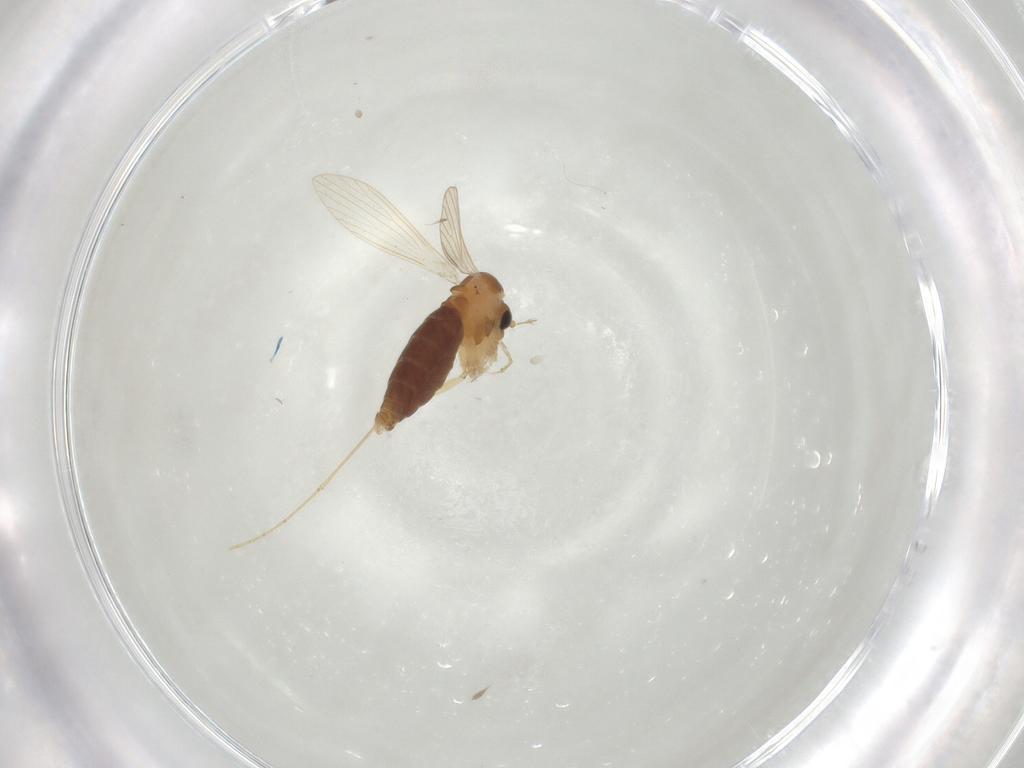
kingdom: Animalia
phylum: Arthropoda
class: Insecta
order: Diptera
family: Psychodidae
